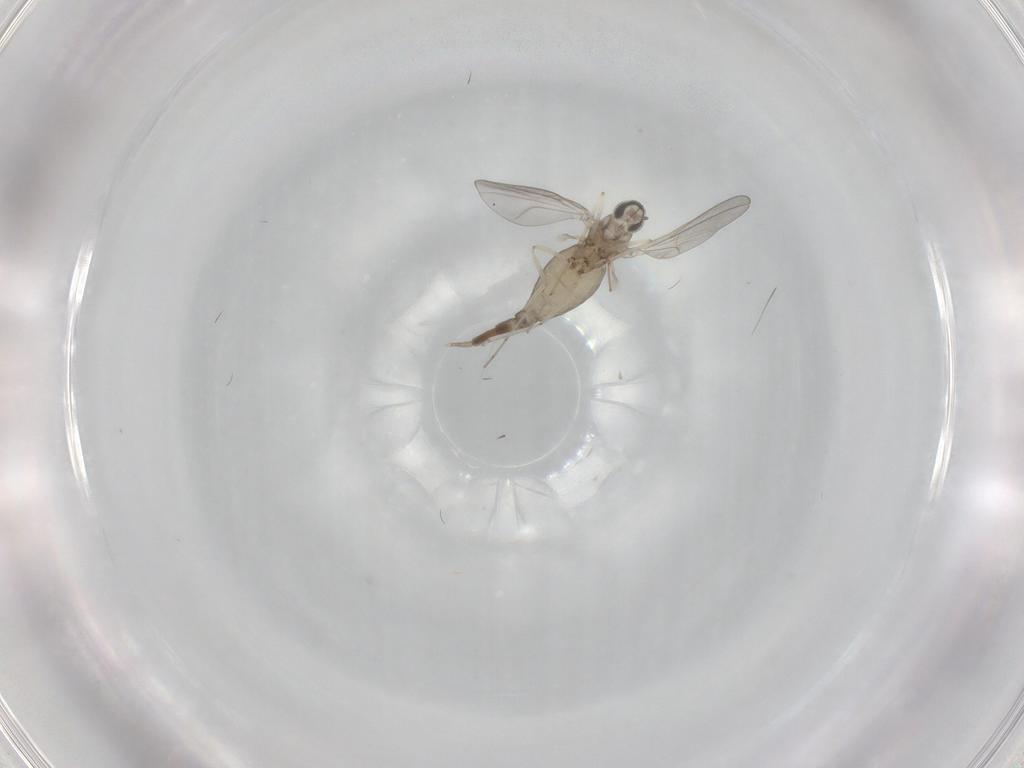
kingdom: Animalia
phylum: Arthropoda
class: Insecta
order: Diptera
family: Cecidomyiidae
